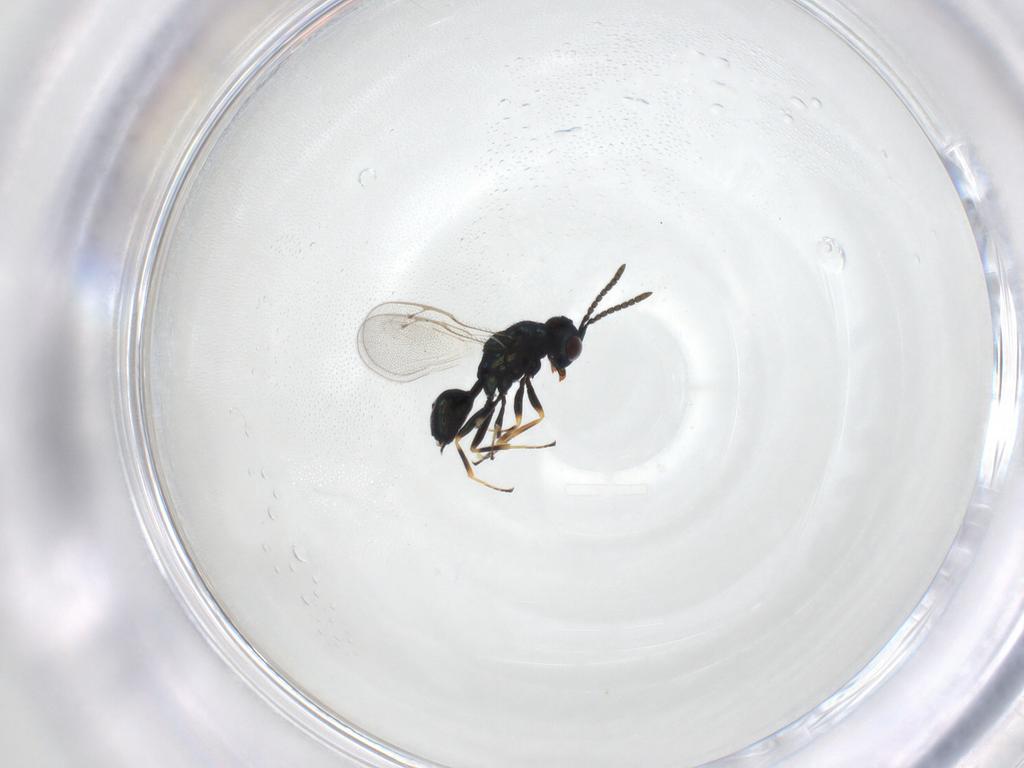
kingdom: Animalia
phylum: Arthropoda
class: Insecta
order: Hymenoptera
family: Pteromalidae
